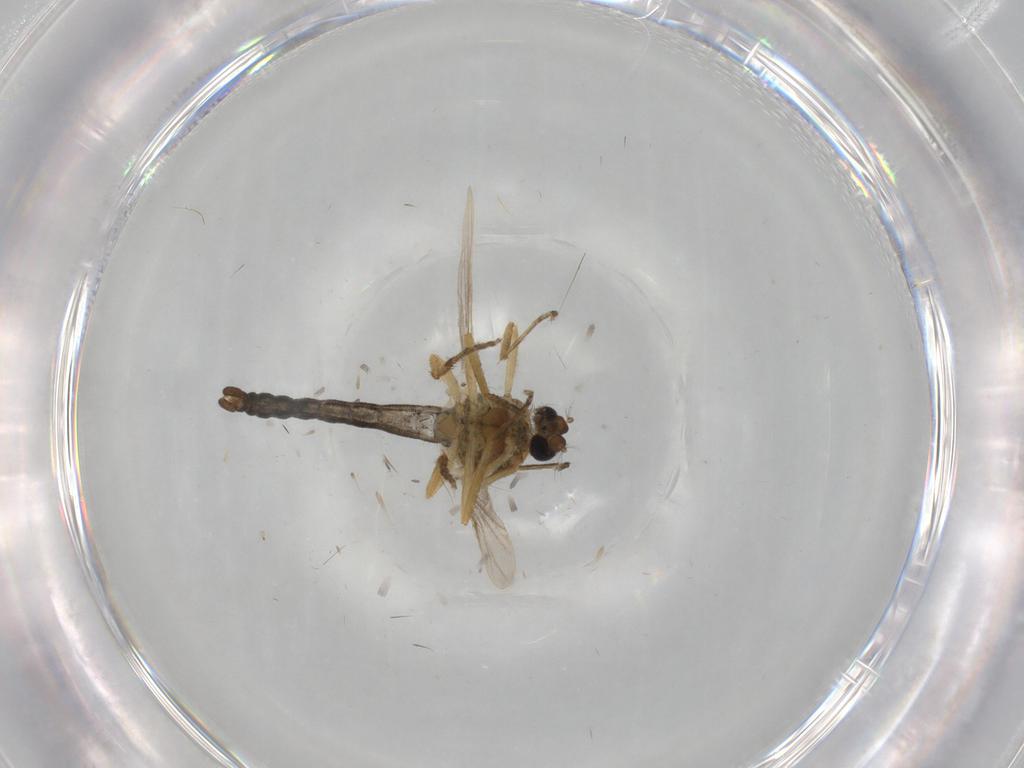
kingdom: Animalia
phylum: Arthropoda
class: Insecta
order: Diptera
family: Ceratopogonidae
